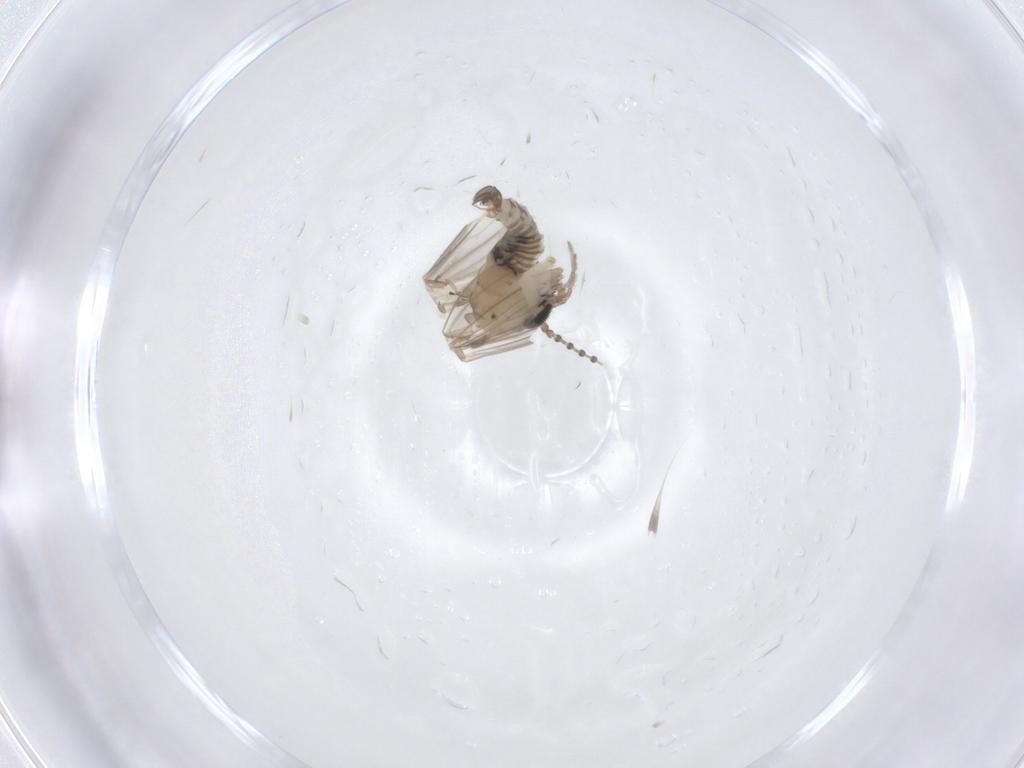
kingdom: Animalia
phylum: Arthropoda
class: Insecta
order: Diptera
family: Psychodidae
